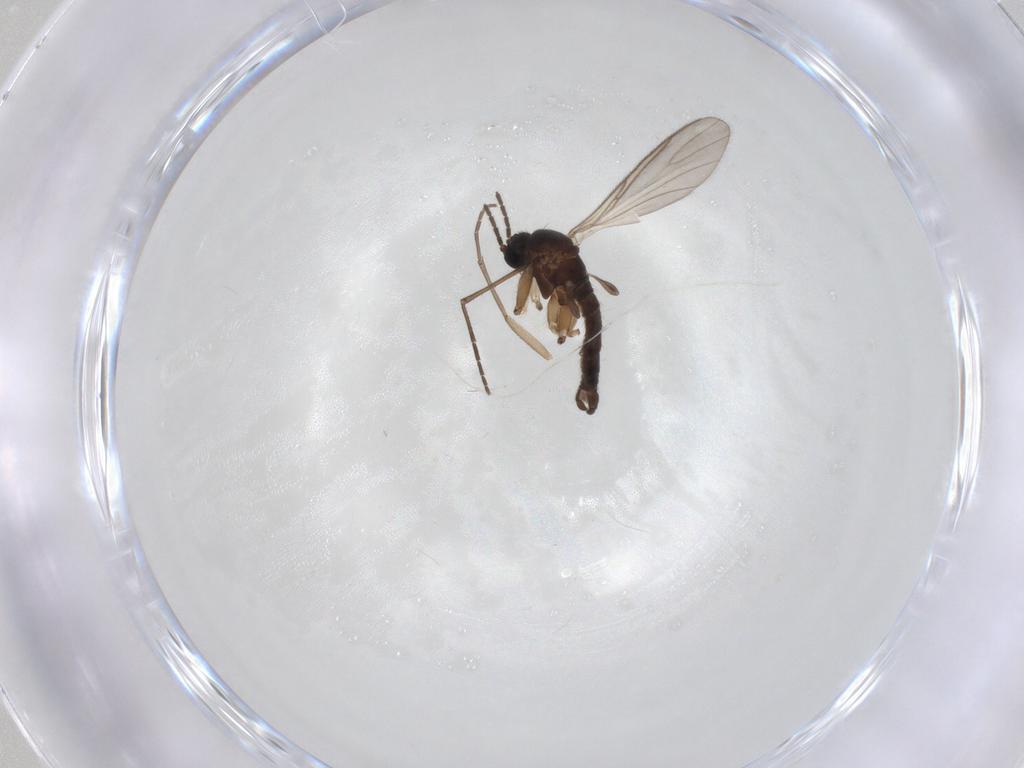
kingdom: Animalia
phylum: Arthropoda
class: Insecta
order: Diptera
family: Sciaridae
